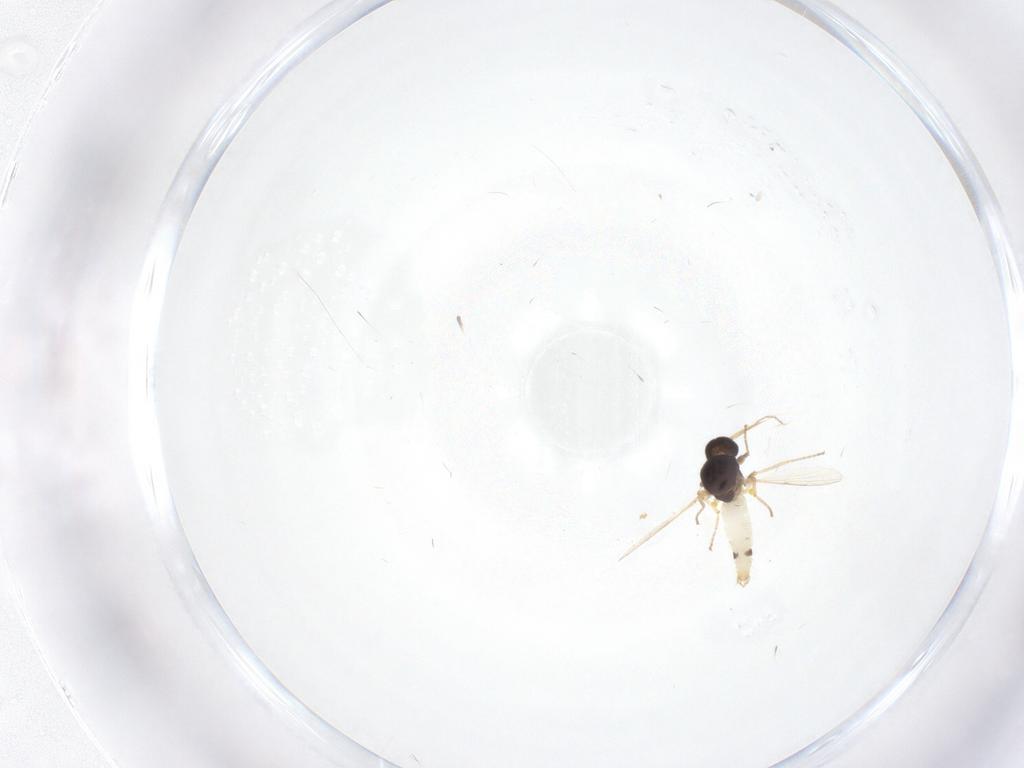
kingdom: Animalia
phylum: Arthropoda
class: Insecta
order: Diptera
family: Ceratopogonidae
